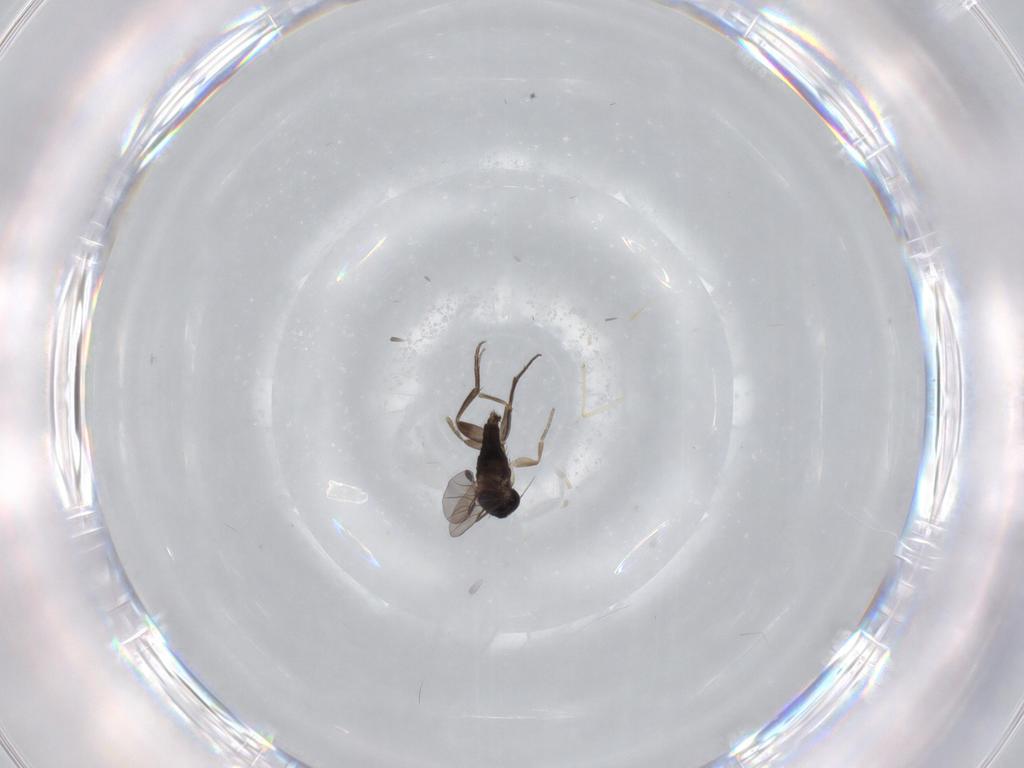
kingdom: Animalia
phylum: Arthropoda
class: Insecta
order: Diptera
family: Phoridae
